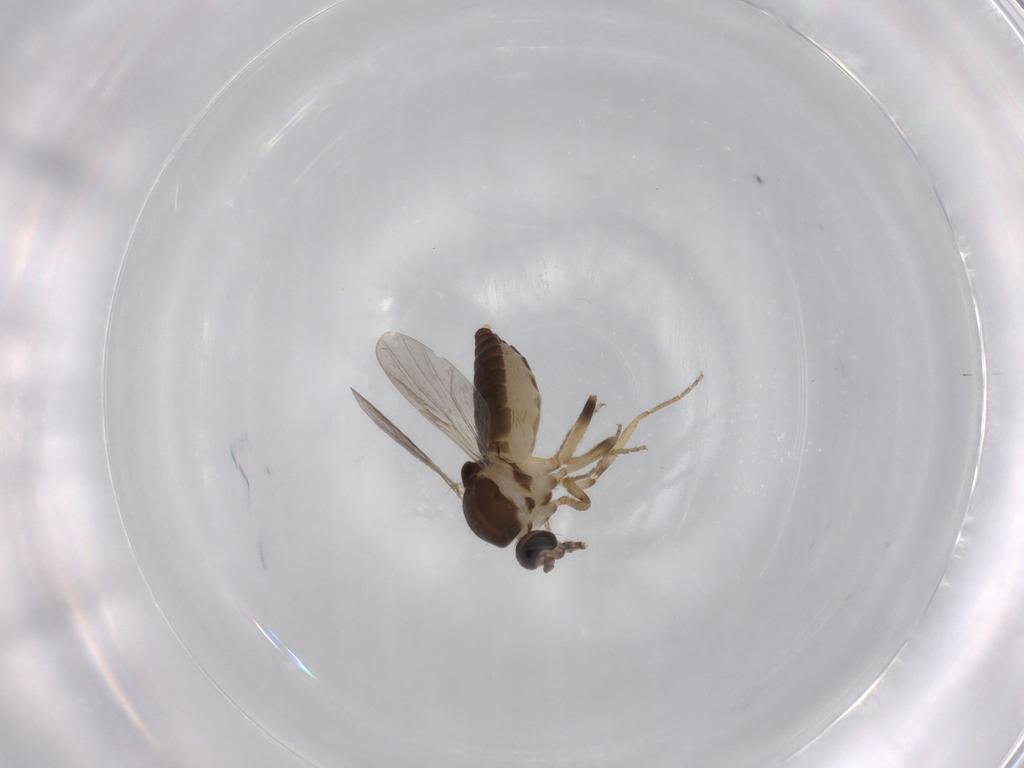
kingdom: Animalia
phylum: Arthropoda
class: Insecta
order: Diptera
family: Ceratopogonidae
